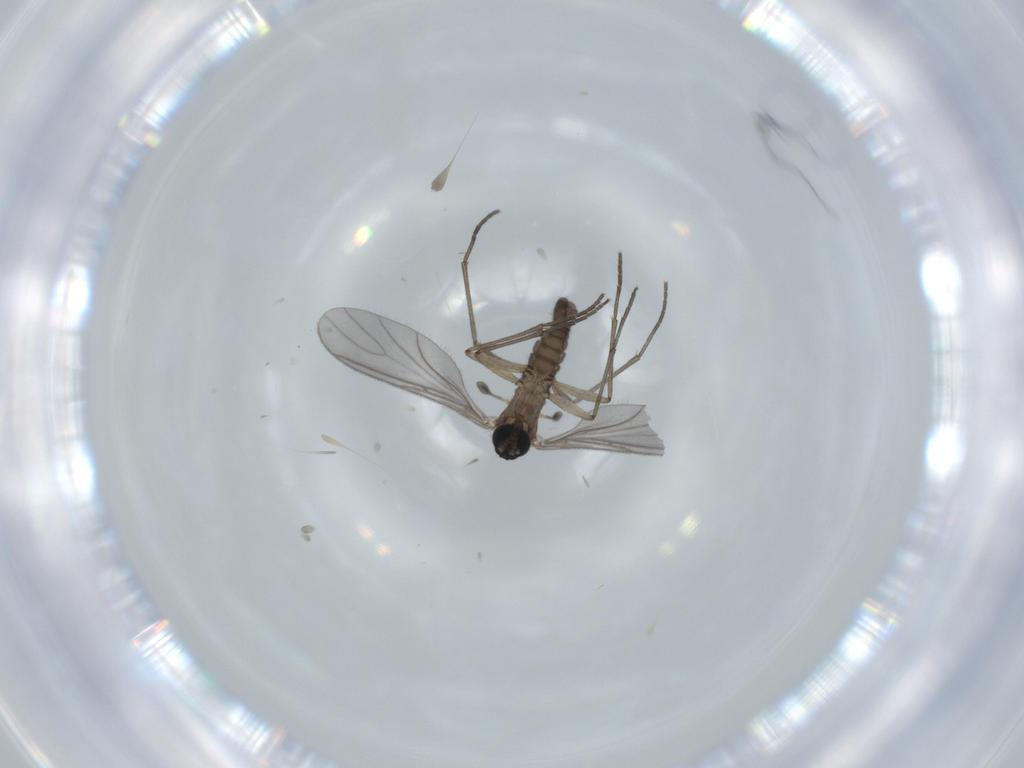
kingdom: Animalia
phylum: Arthropoda
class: Insecta
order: Diptera
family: Sciaridae
